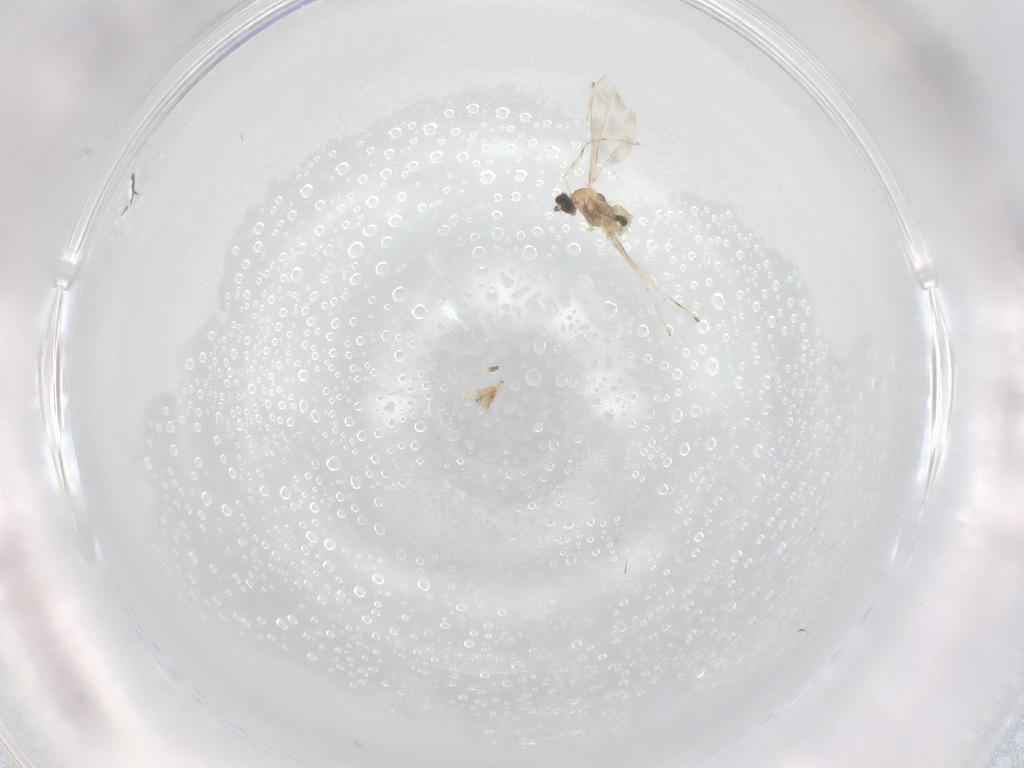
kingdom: Animalia
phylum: Arthropoda
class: Insecta
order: Diptera
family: Cecidomyiidae
